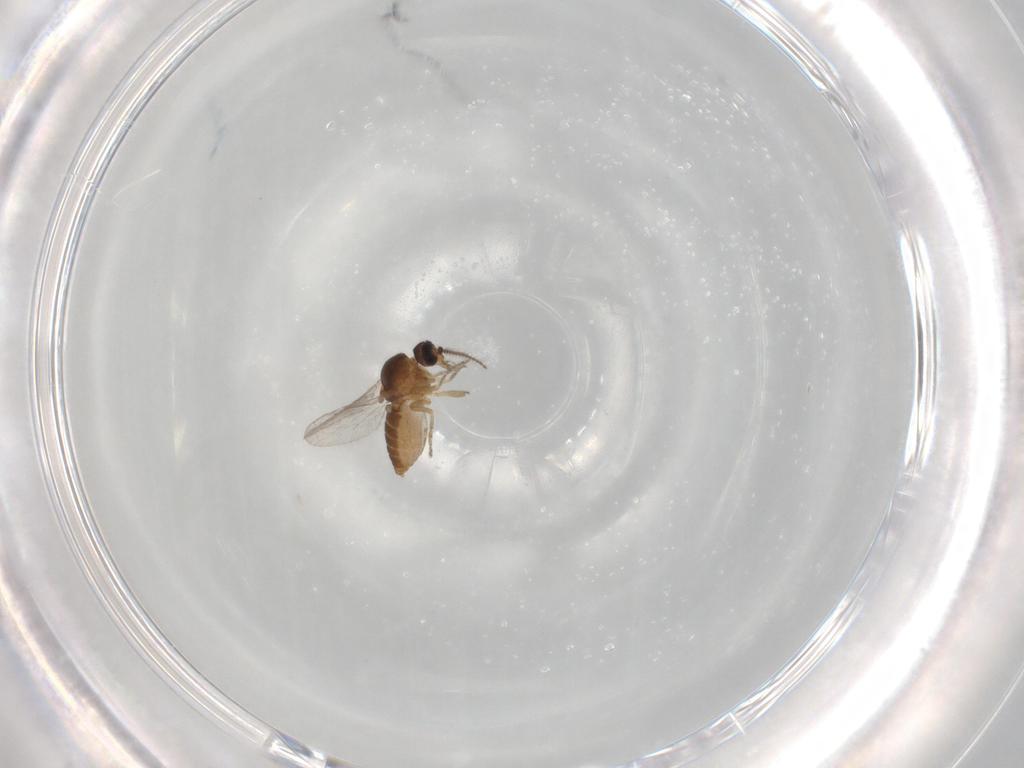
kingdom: Animalia
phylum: Arthropoda
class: Insecta
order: Diptera
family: Ceratopogonidae
